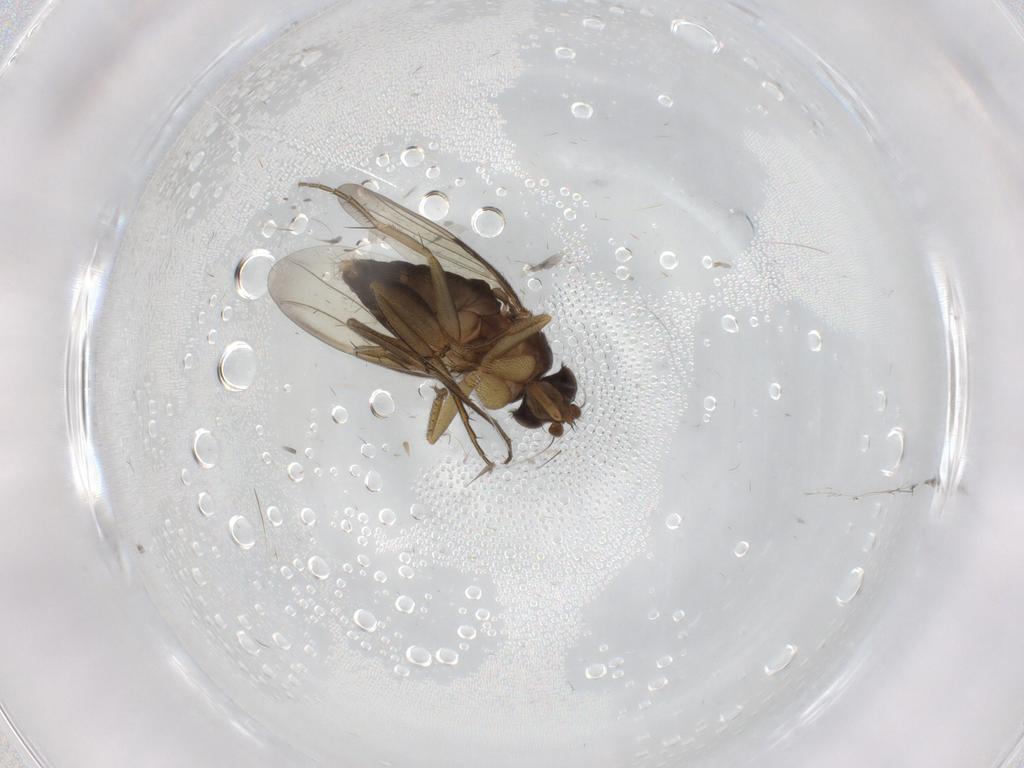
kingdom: Animalia
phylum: Arthropoda
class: Insecta
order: Diptera
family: Phoridae
